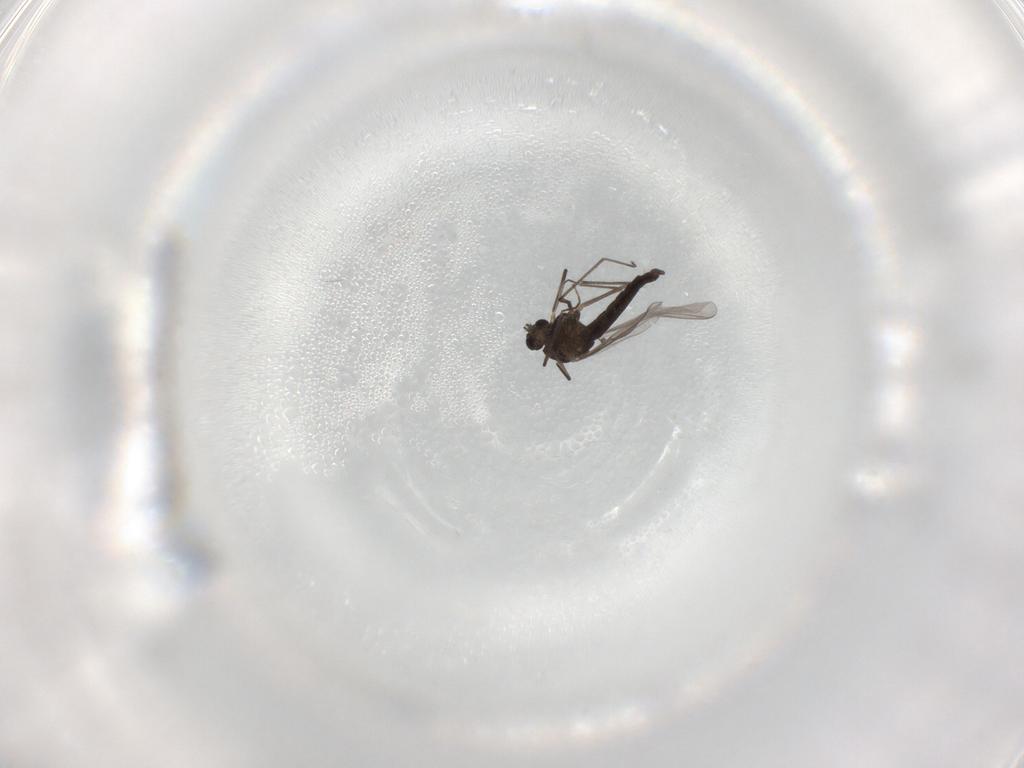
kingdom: Animalia
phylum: Arthropoda
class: Insecta
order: Diptera
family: Chironomidae
